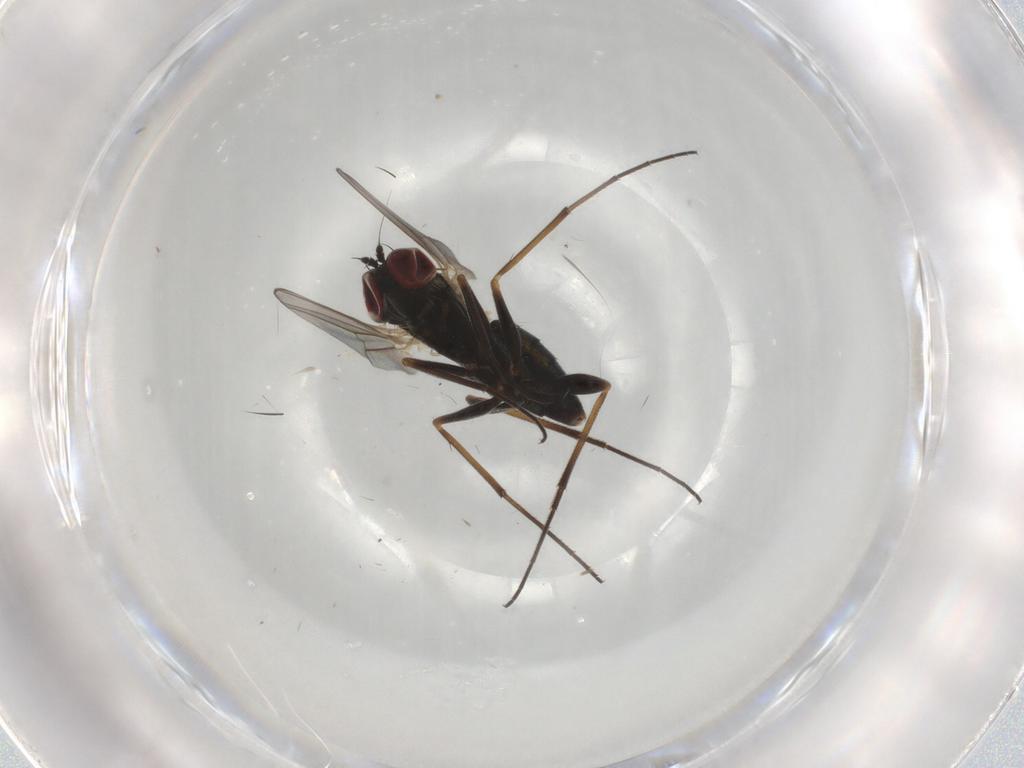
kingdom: Animalia
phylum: Arthropoda
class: Insecta
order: Diptera
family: Dolichopodidae
